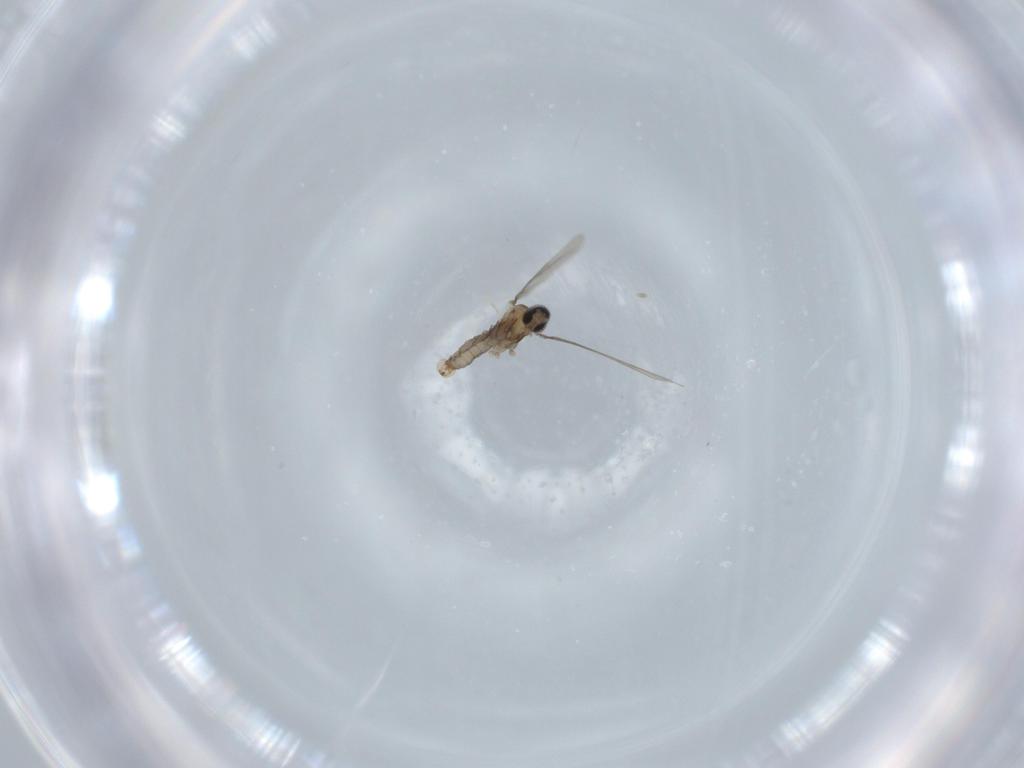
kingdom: Animalia
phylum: Arthropoda
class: Insecta
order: Diptera
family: Cecidomyiidae
